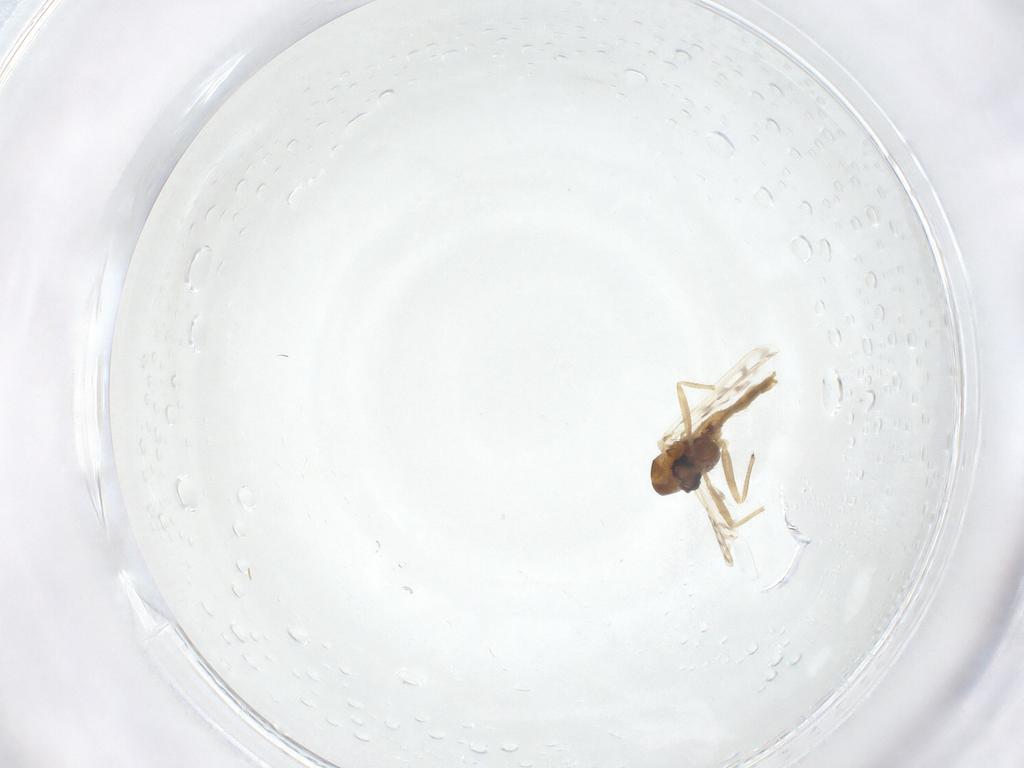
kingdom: Animalia
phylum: Arthropoda
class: Insecta
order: Diptera
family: Chironomidae
